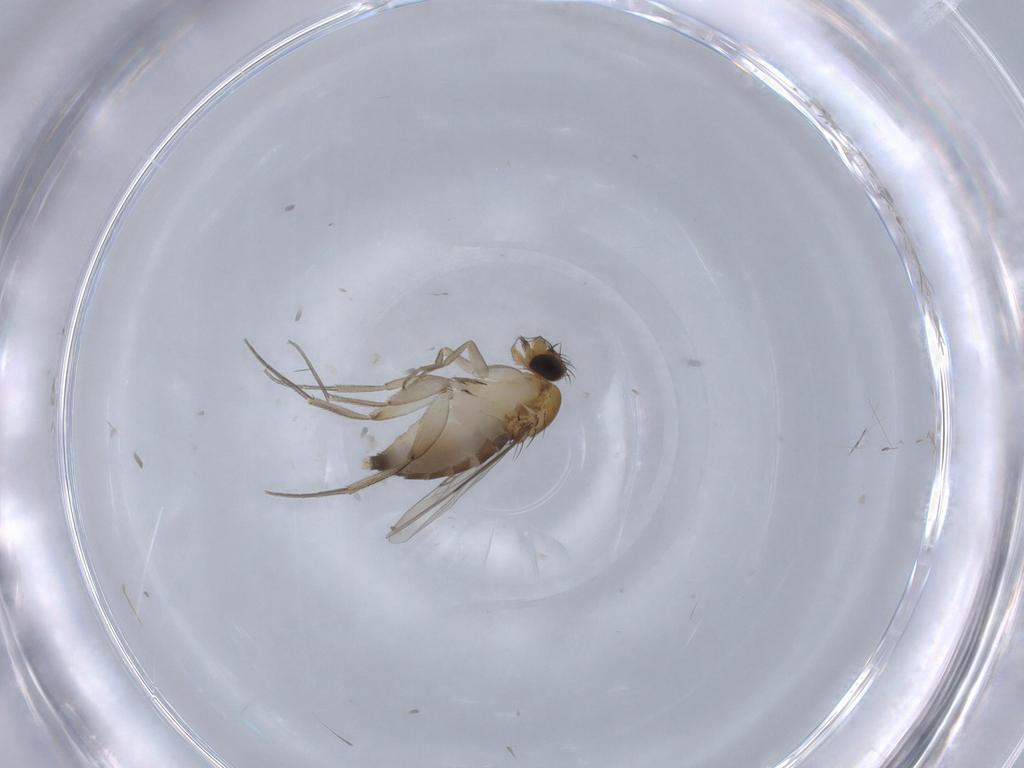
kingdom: Animalia
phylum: Arthropoda
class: Insecta
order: Diptera
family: Phoridae
